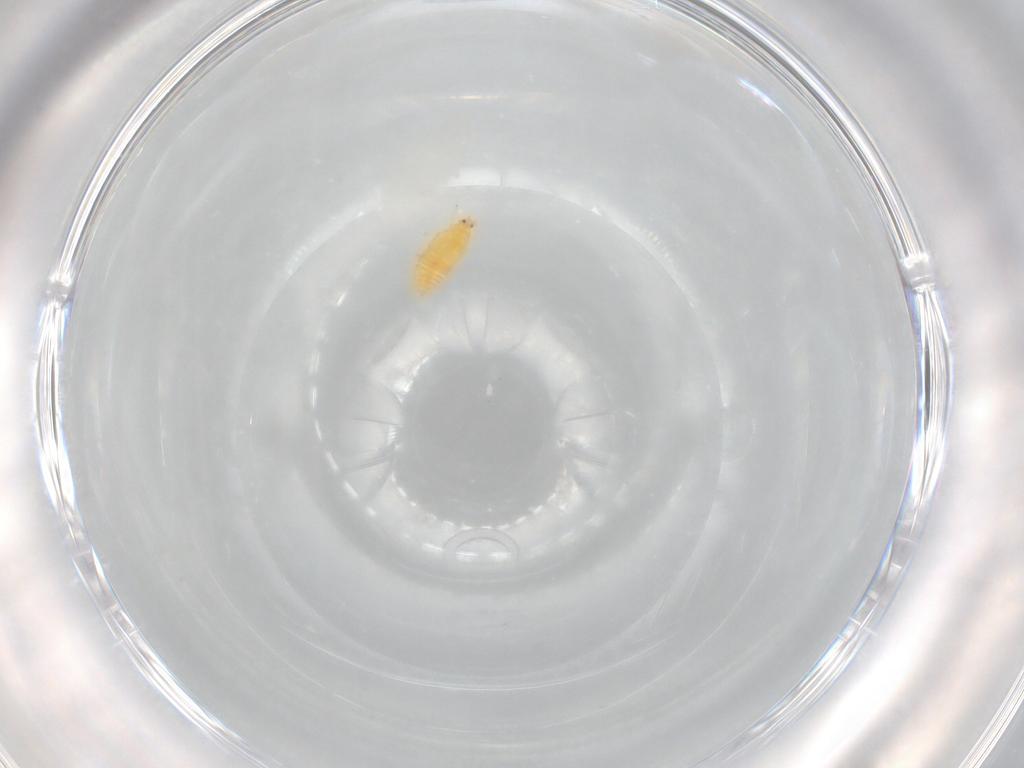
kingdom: Animalia
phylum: Arthropoda
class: Insecta
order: Thysanoptera
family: Heterothripidae
